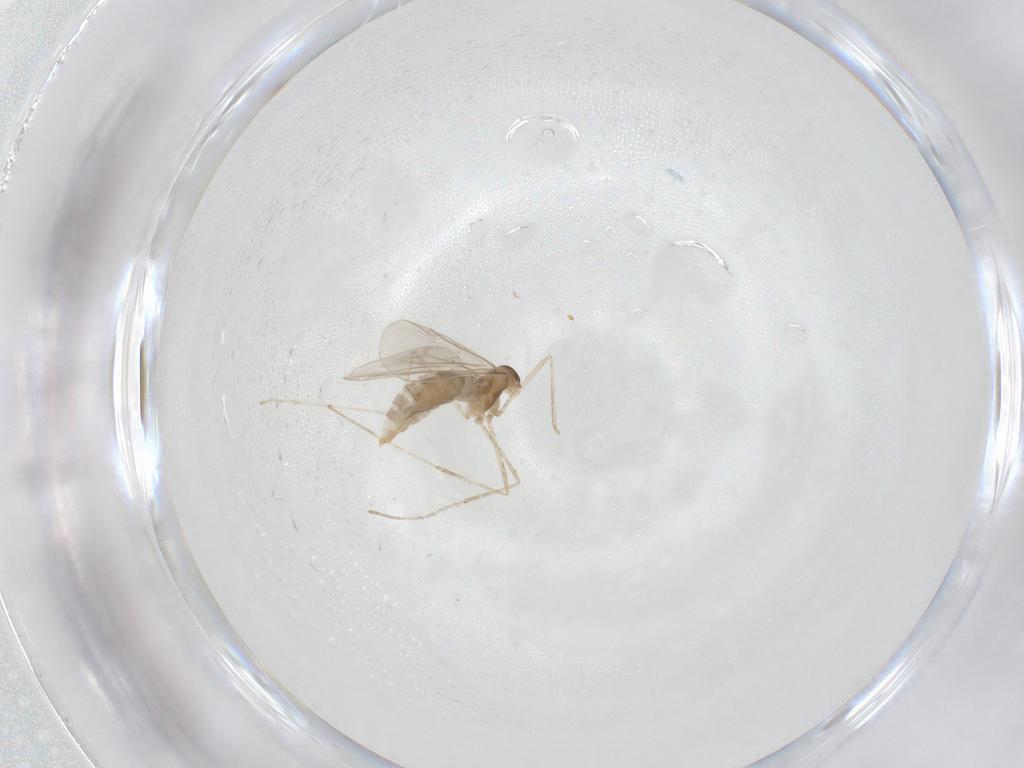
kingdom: Animalia
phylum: Arthropoda
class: Insecta
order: Diptera
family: Cecidomyiidae
